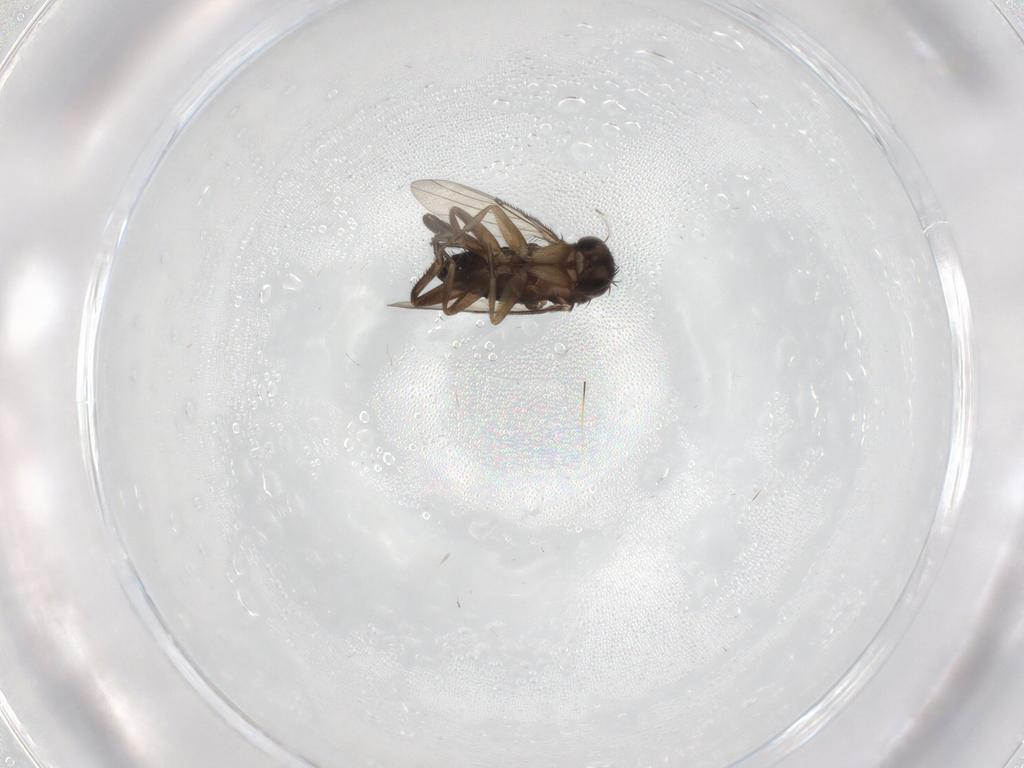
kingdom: Animalia
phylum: Arthropoda
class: Insecta
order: Diptera
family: Phoridae
